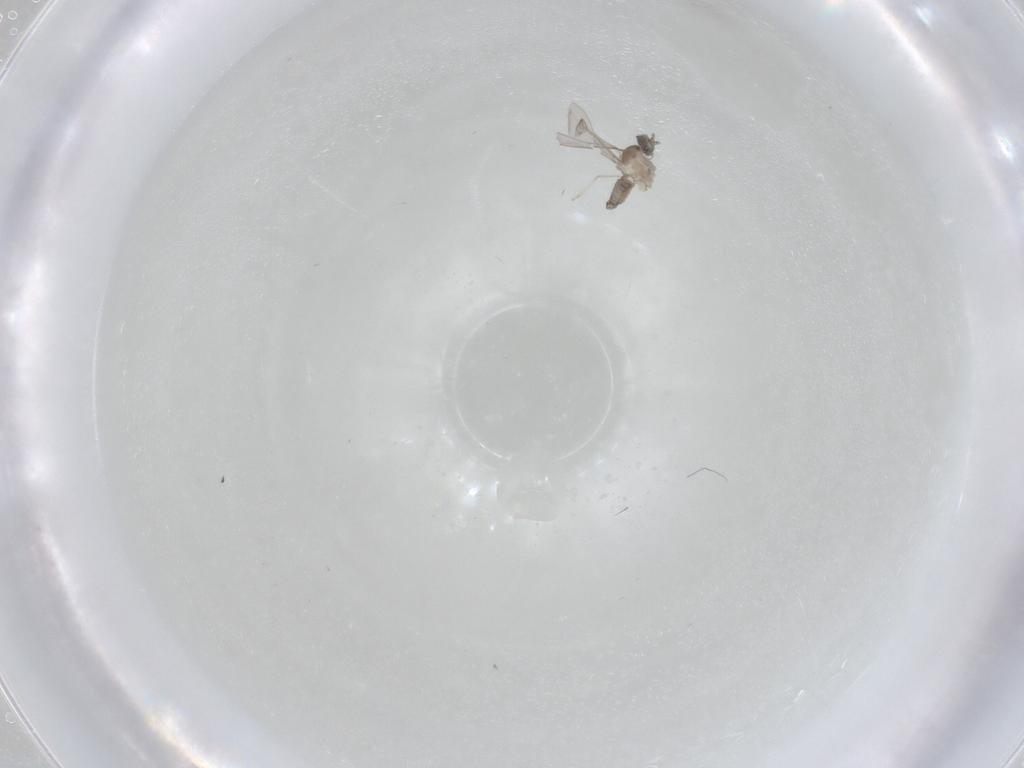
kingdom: Animalia
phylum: Arthropoda
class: Insecta
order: Diptera
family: Cecidomyiidae
